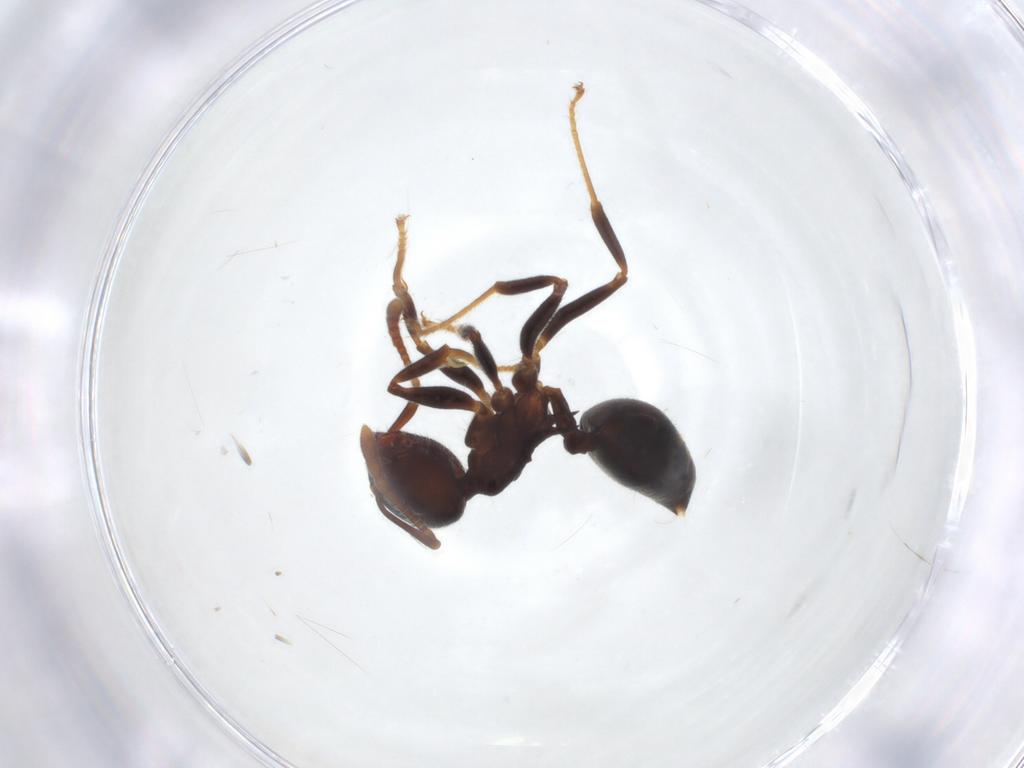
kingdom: Animalia
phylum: Arthropoda
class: Insecta
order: Hymenoptera
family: Formicidae
